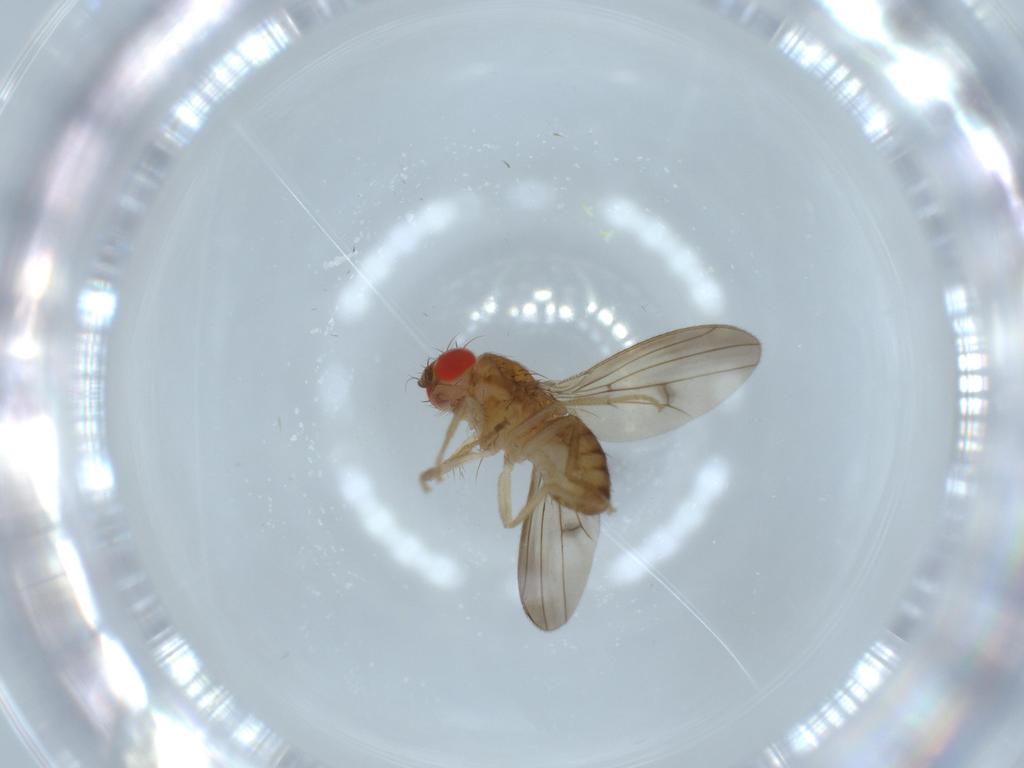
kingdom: Animalia
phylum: Arthropoda
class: Insecta
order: Diptera
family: Drosophilidae
